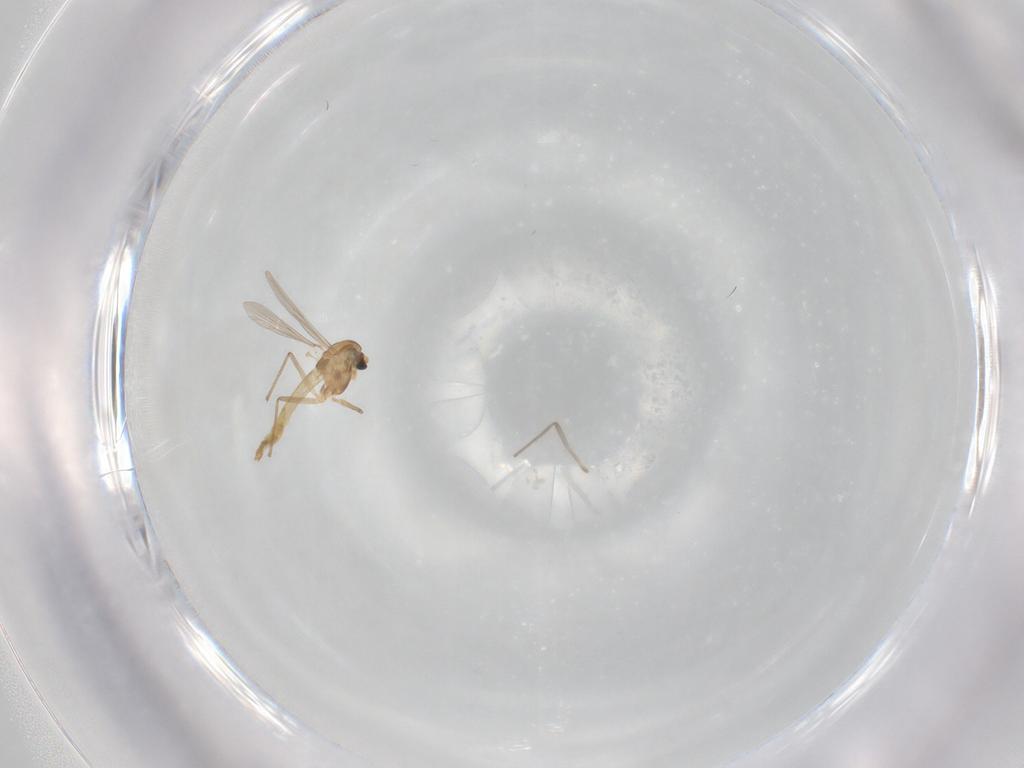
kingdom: Animalia
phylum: Arthropoda
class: Insecta
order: Diptera
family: Chironomidae
